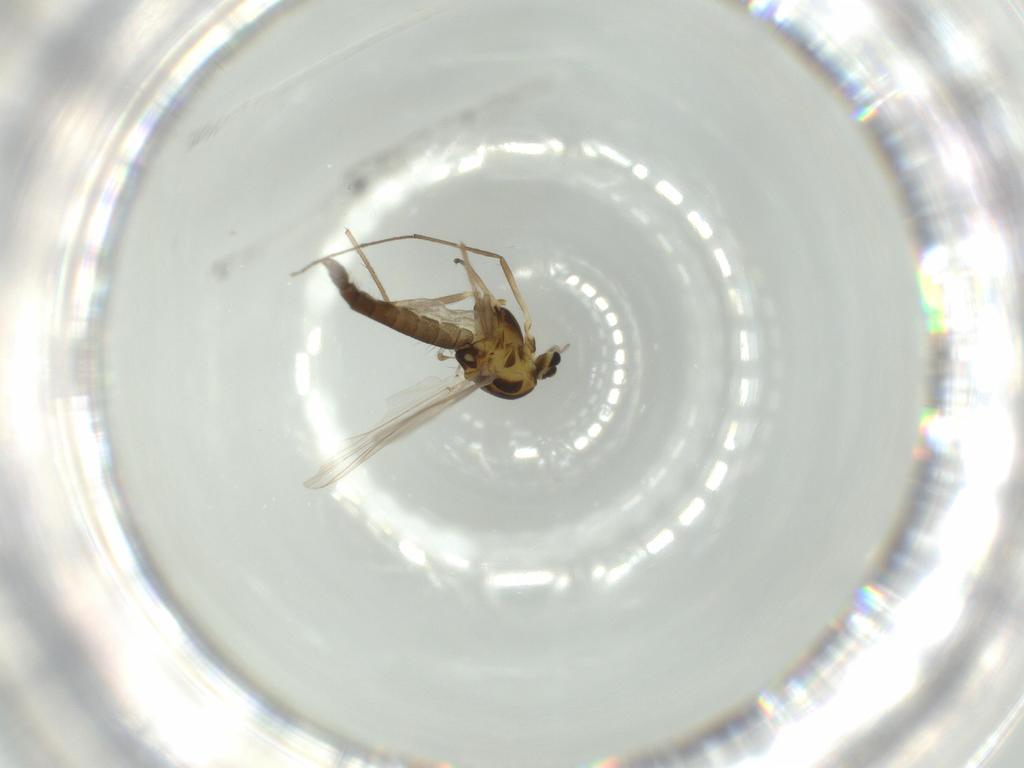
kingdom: Animalia
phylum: Arthropoda
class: Insecta
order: Diptera
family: Chironomidae
